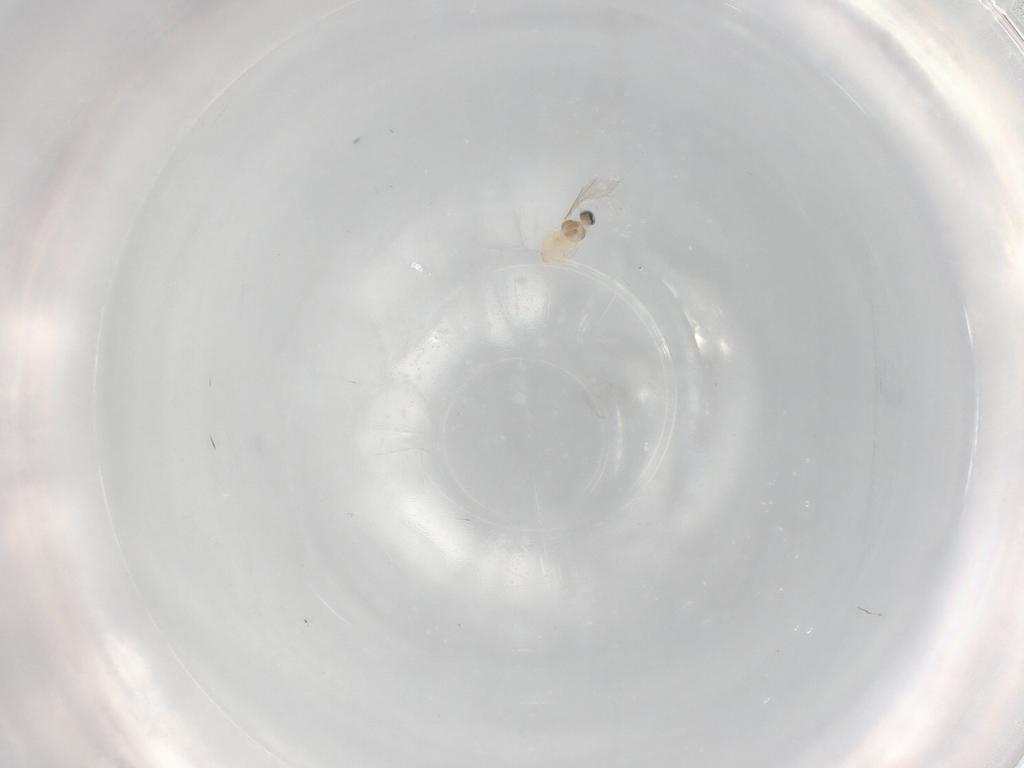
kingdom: Animalia
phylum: Arthropoda
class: Insecta
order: Diptera
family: Cecidomyiidae
